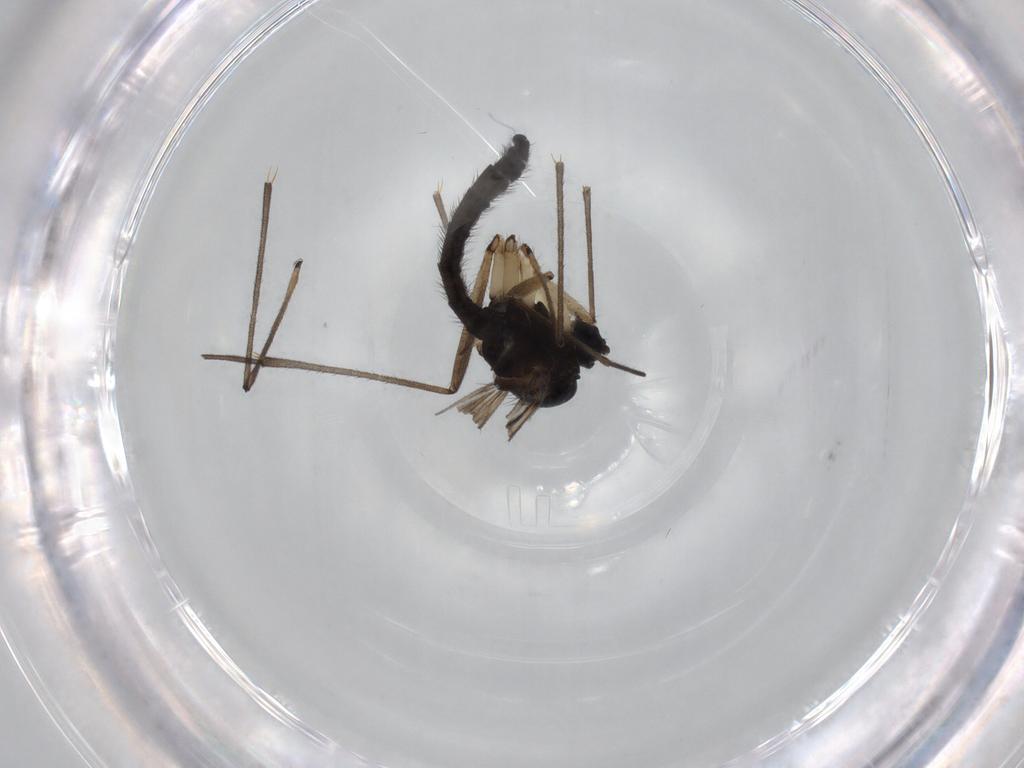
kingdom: Animalia
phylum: Arthropoda
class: Insecta
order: Diptera
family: Sciaridae
